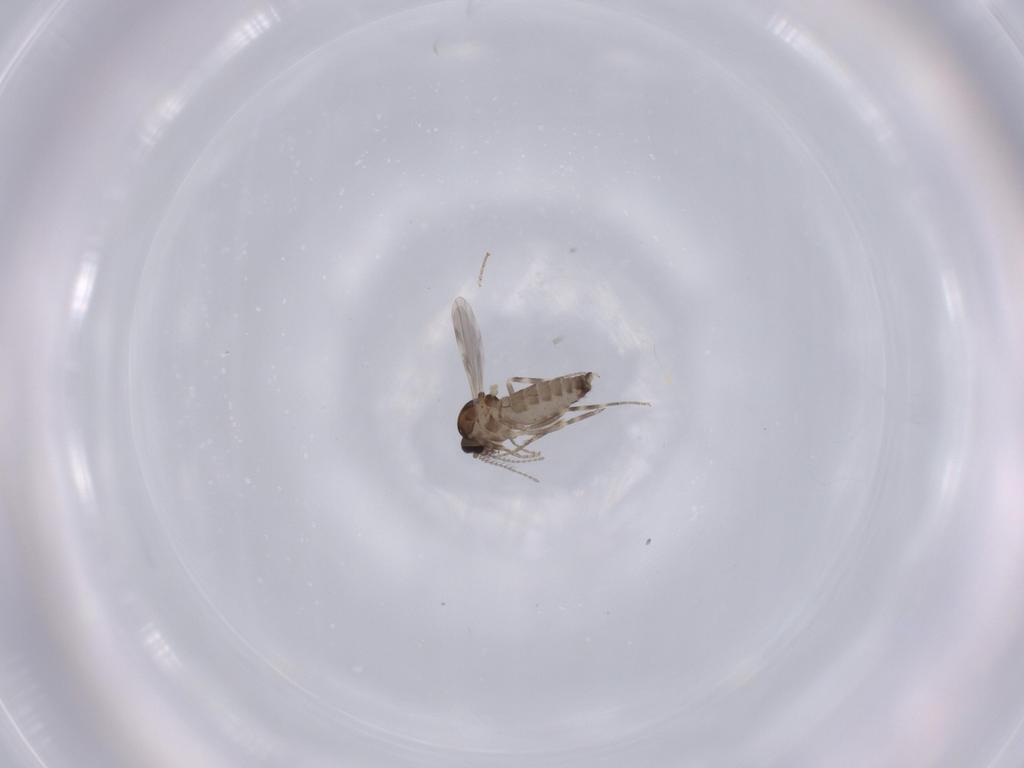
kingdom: Animalia
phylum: Arthropoda
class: Insecta
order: Diptera
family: Ceratopogonidae
